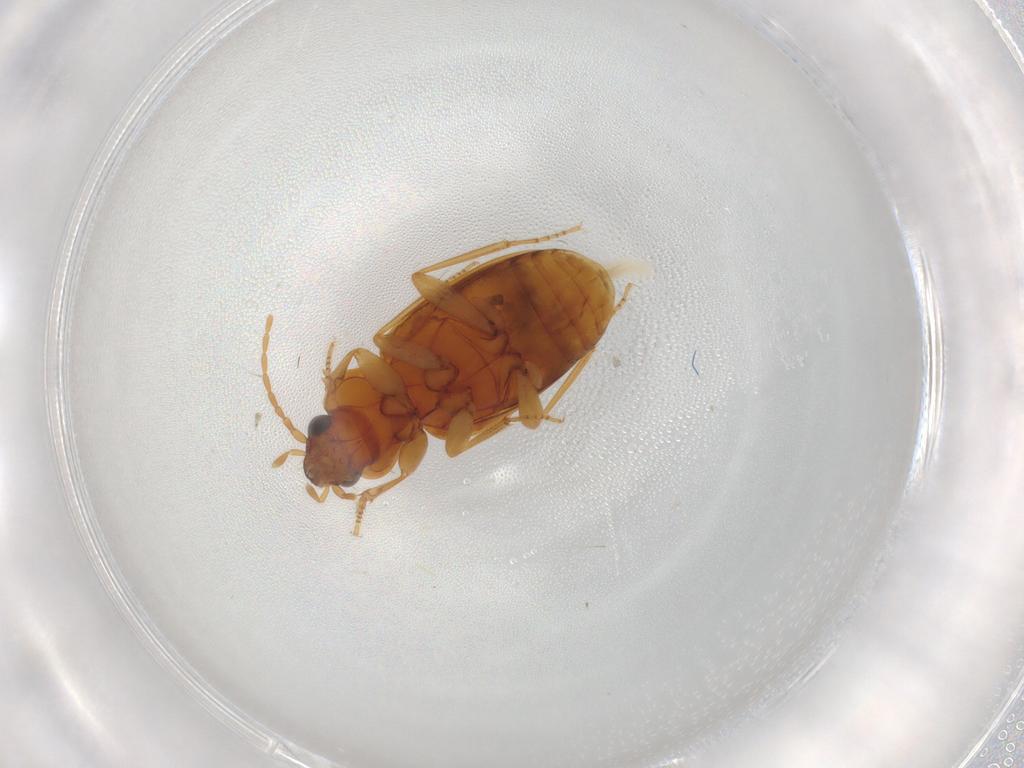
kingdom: Animalia
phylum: Arthropoda
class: Insecta
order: Coleoptera
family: Carabidae
